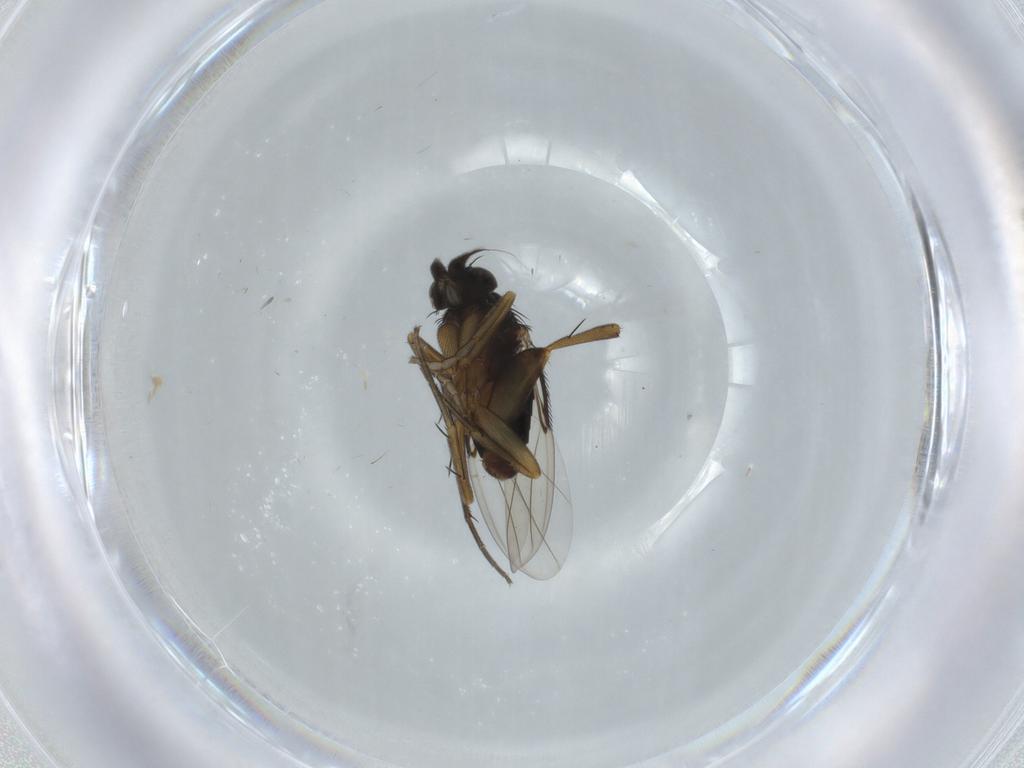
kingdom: Animalia
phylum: Arthropoda
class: Insecta
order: Diptera
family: Phoridae
